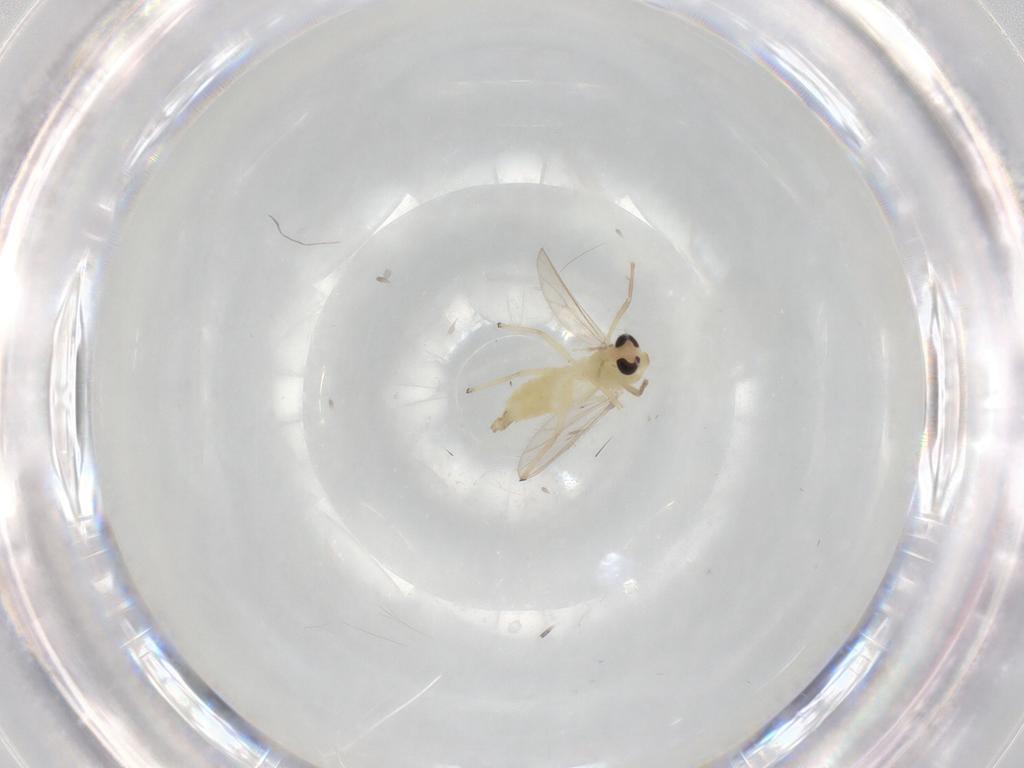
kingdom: Animalia
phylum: Arthropoda
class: Insecta
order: Diptera
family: Chironomidae
